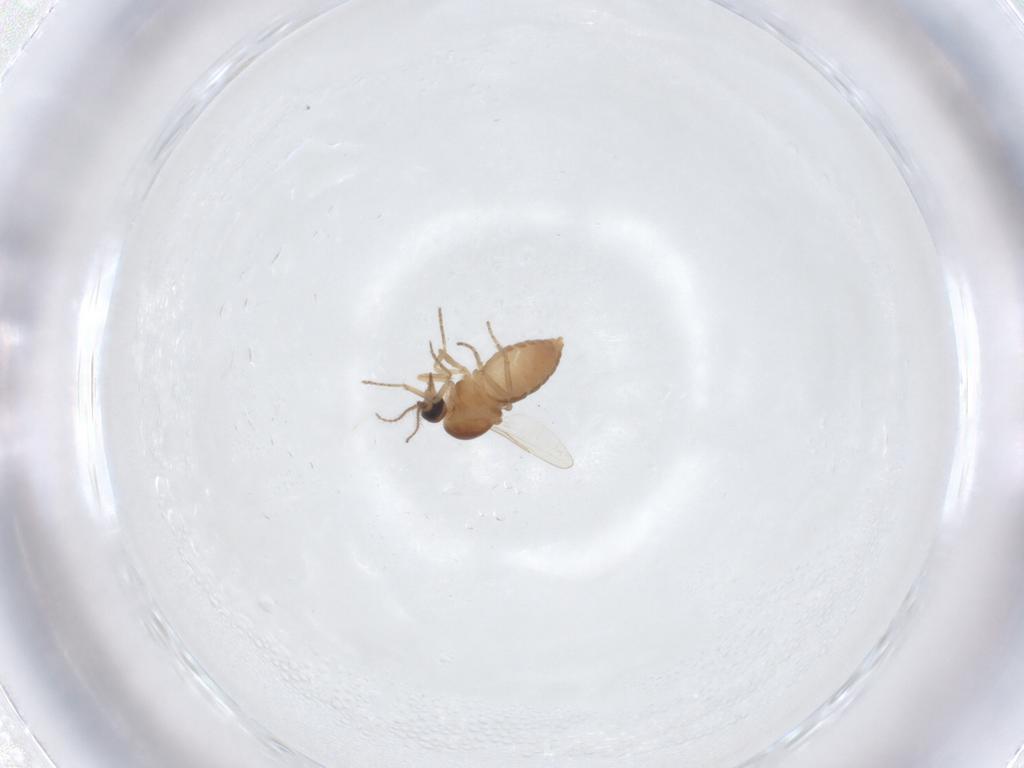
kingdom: Animalia
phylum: Arthropoda
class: Insecta
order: Diptera
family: Ceratopogonidae
